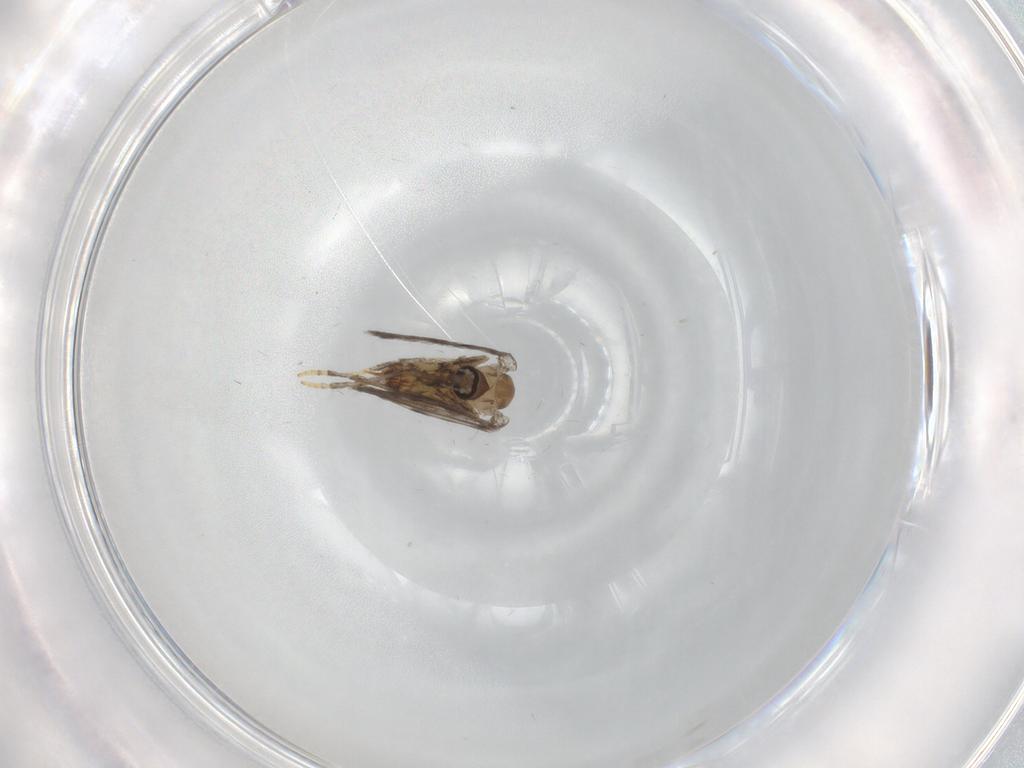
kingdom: Animalia
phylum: Arthropoda
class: Insecta
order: Diptera
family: Psychodidae
